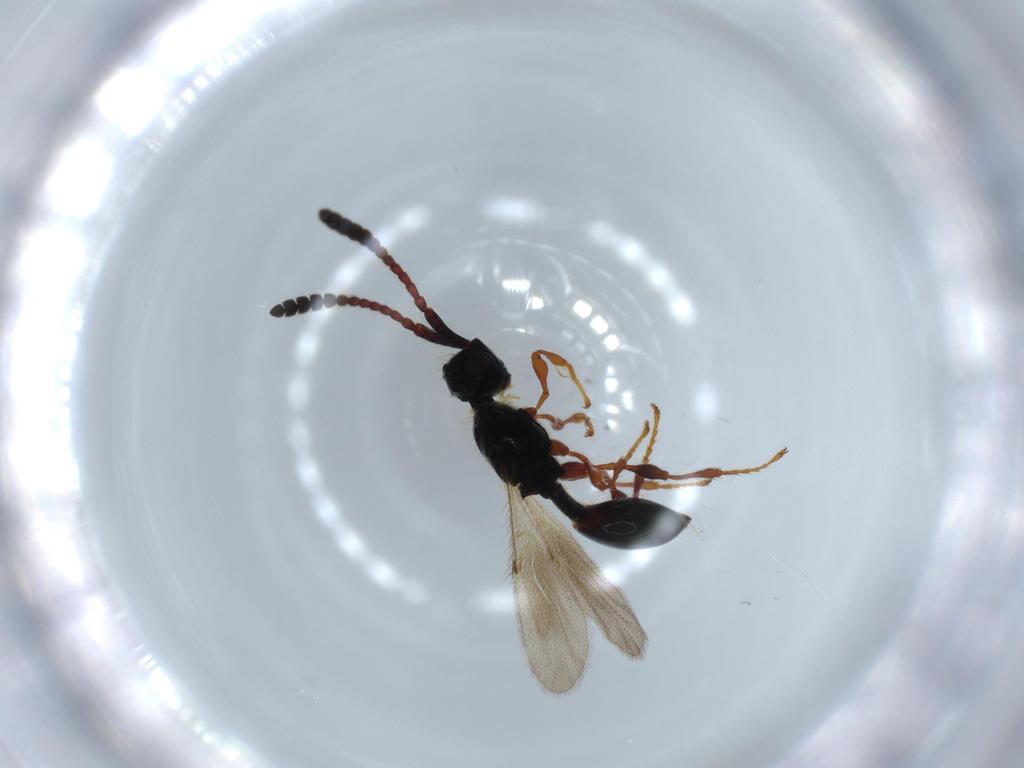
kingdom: Animalia
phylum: Arthropoda
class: Insecta
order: Hymenoptera
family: Diapriidae
